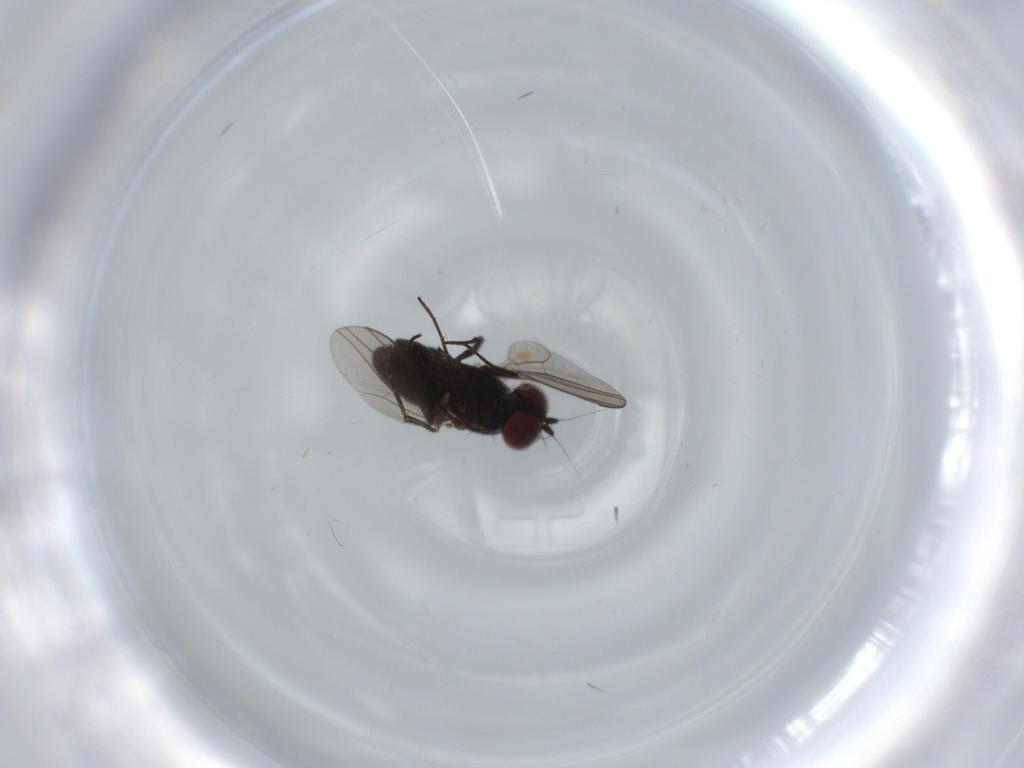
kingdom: Animalia
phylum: Arthropoda
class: Insecta
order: Diptera
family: Dolichopodidae
